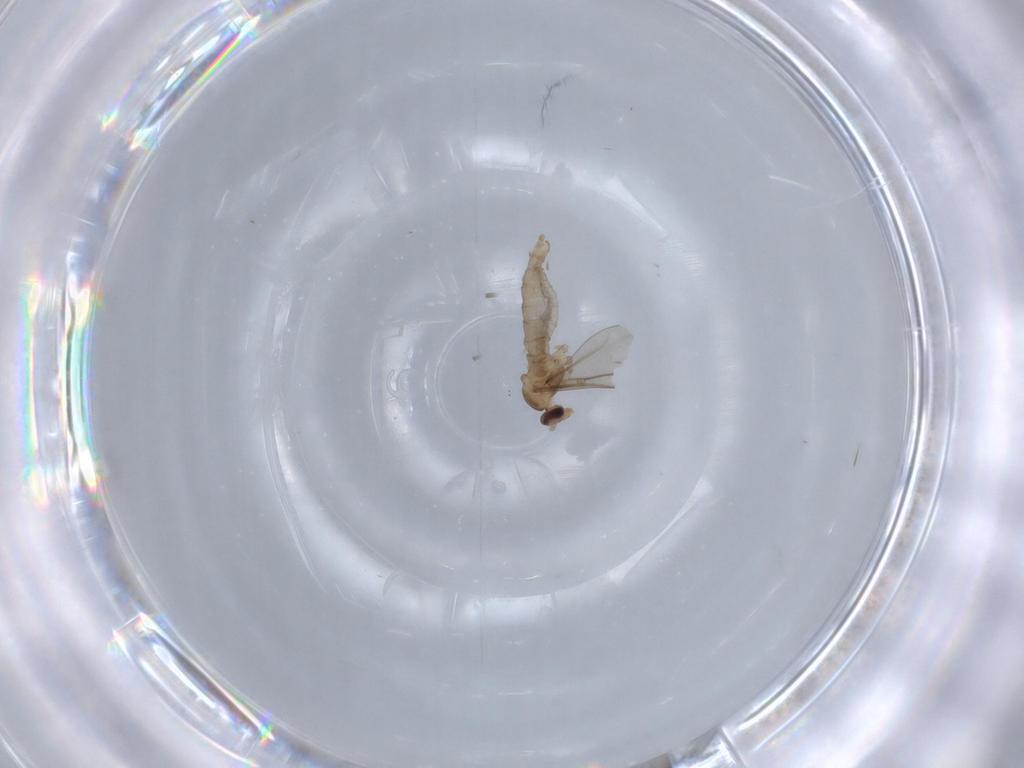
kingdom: Animalia
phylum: Arthropoda
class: Insecta
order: Diptera
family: Cecidomyiidae
